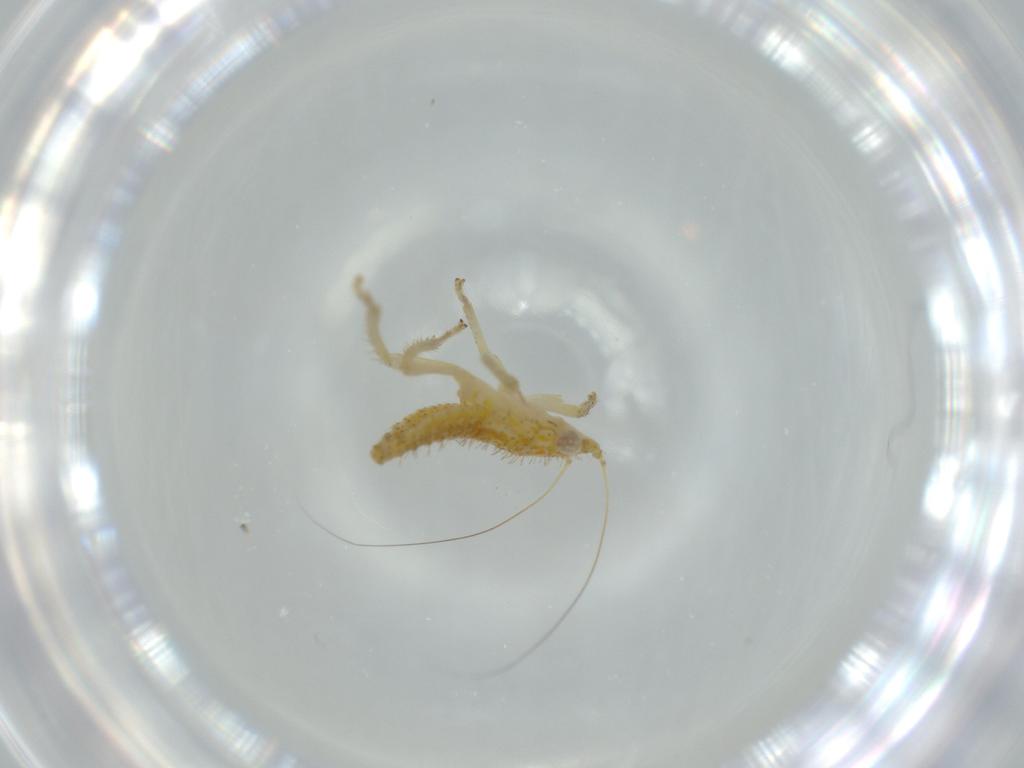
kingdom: Animalia
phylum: Arthropoda
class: Insecta
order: Hemiptera
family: Cicadellidae
